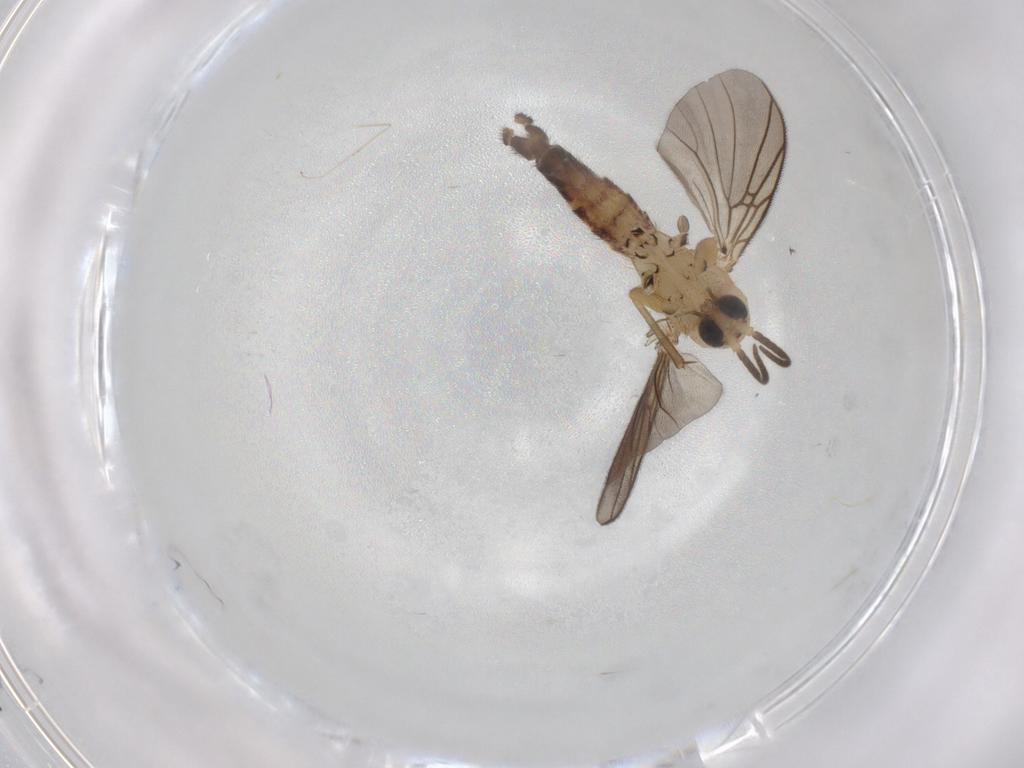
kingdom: Animalia
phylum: Arthropoda
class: Insecta
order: Diptera
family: Mycetophilidae
